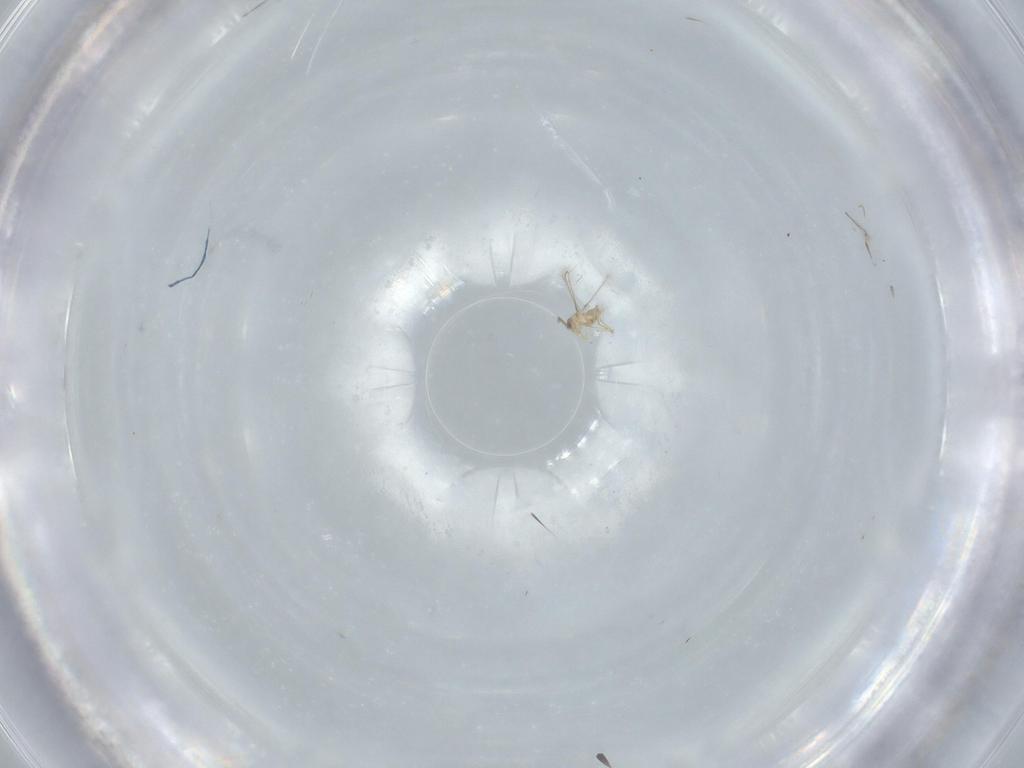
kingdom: Animalia
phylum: Arthropoda
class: Insecta
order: Hymenoptera
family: Mymaridae
